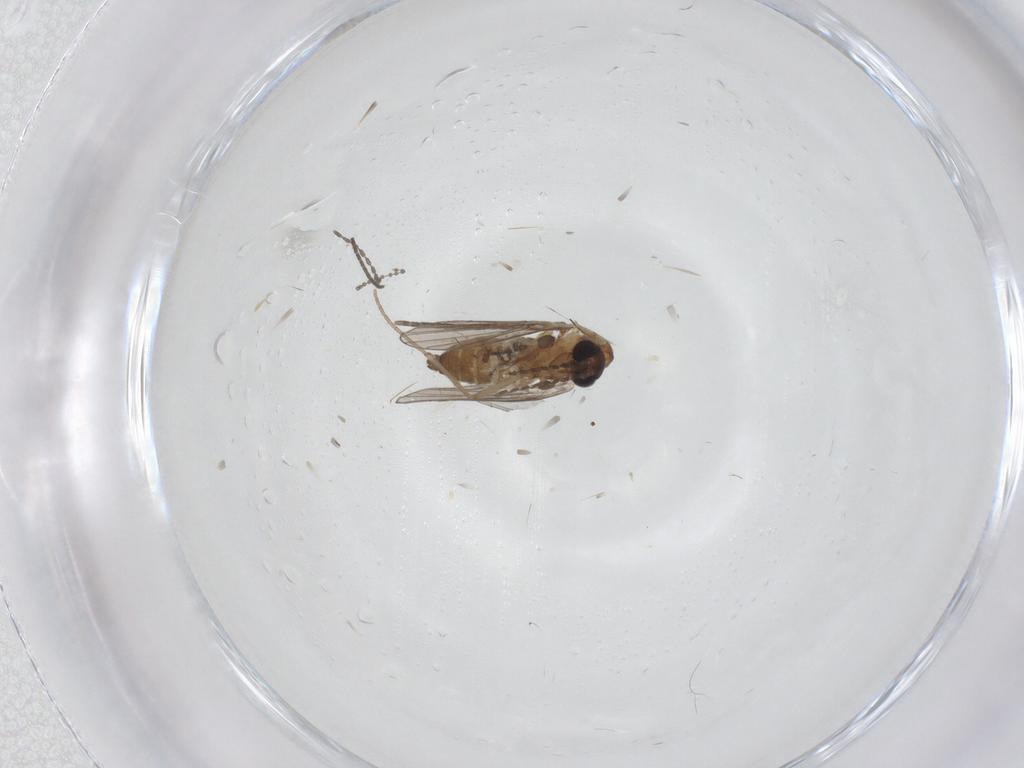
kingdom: Animalia
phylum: Arthropoda
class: Insecta
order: Diptera
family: Cecidomyiidae
